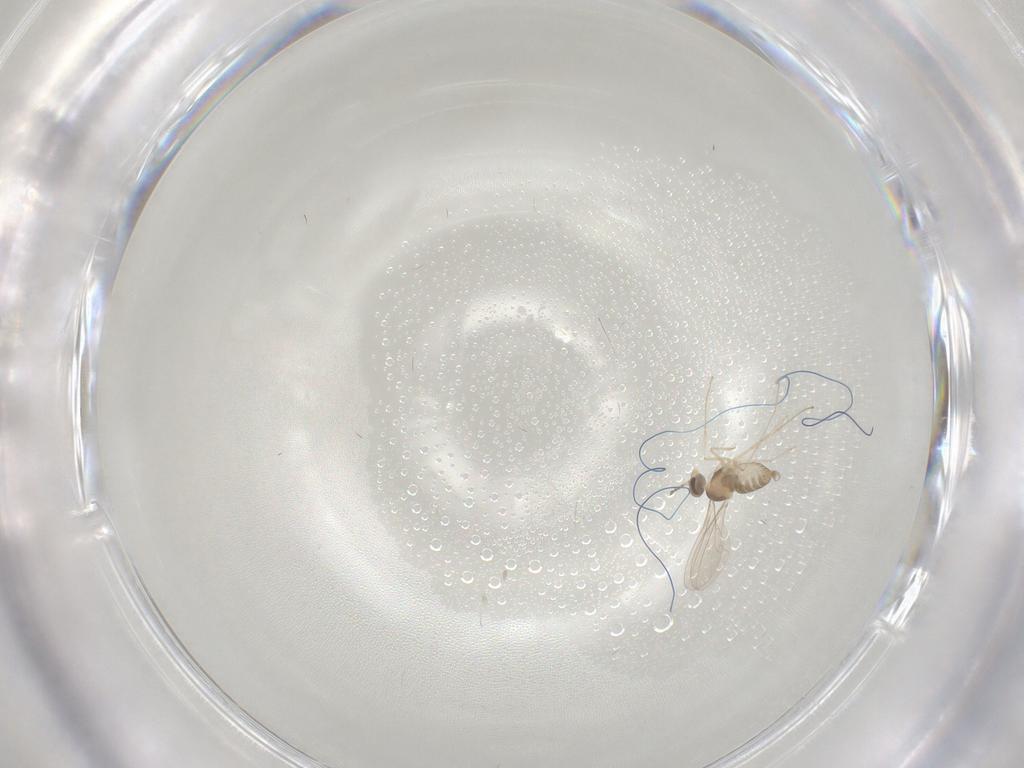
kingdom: Animalia
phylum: Arthropoda
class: Insecta
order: Diptera
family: Cecidomyiidae
